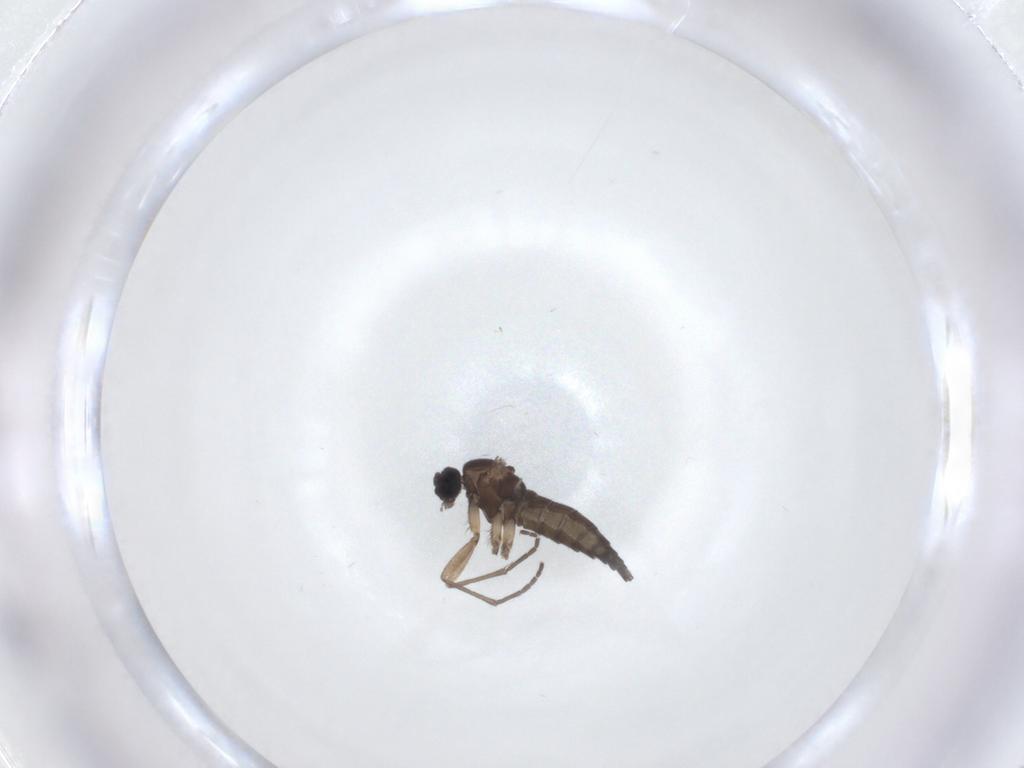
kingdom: Animalia
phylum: Arthropoda
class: Insecta
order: Diptera
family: Sciaridae
